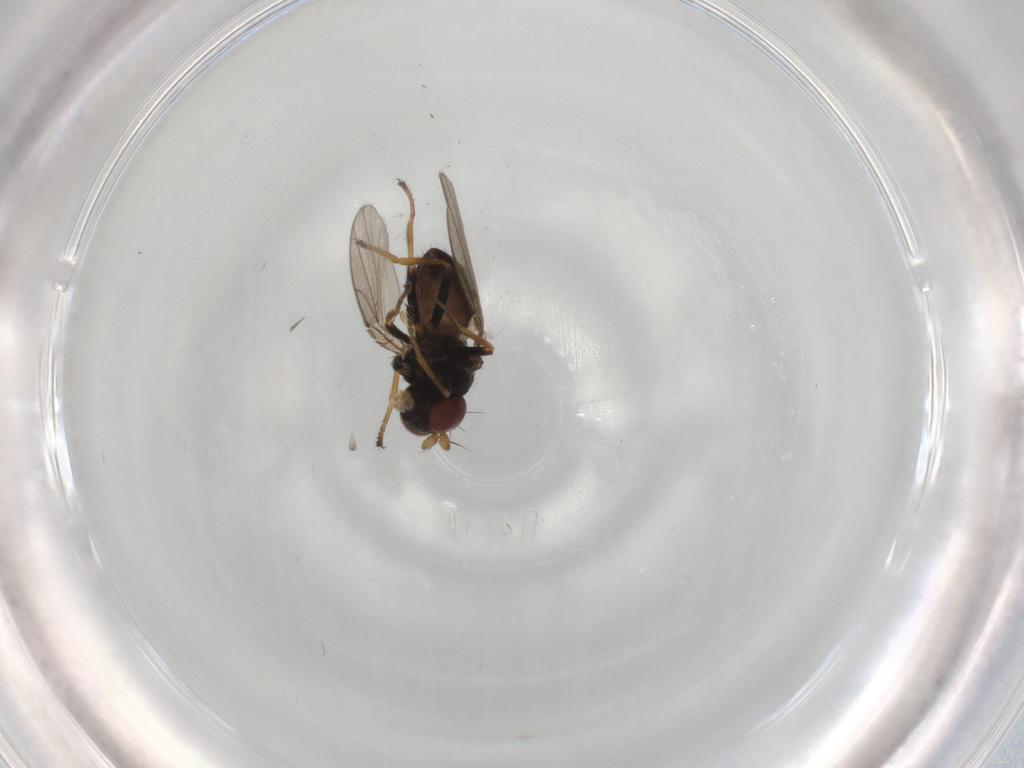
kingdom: Animalia
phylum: Arthropoda
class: Insecta
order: Diptera
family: Ephydridae
